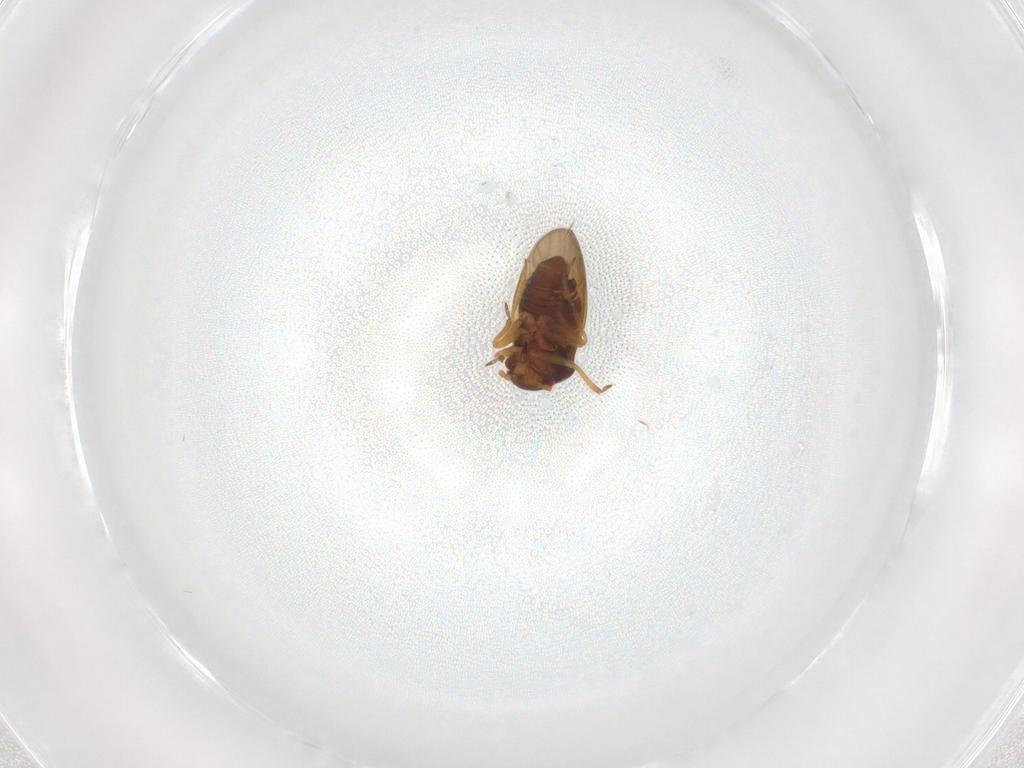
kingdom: Animalia
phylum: Arthropoda
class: Insecta
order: Hemiptera
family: Schizopteridae
